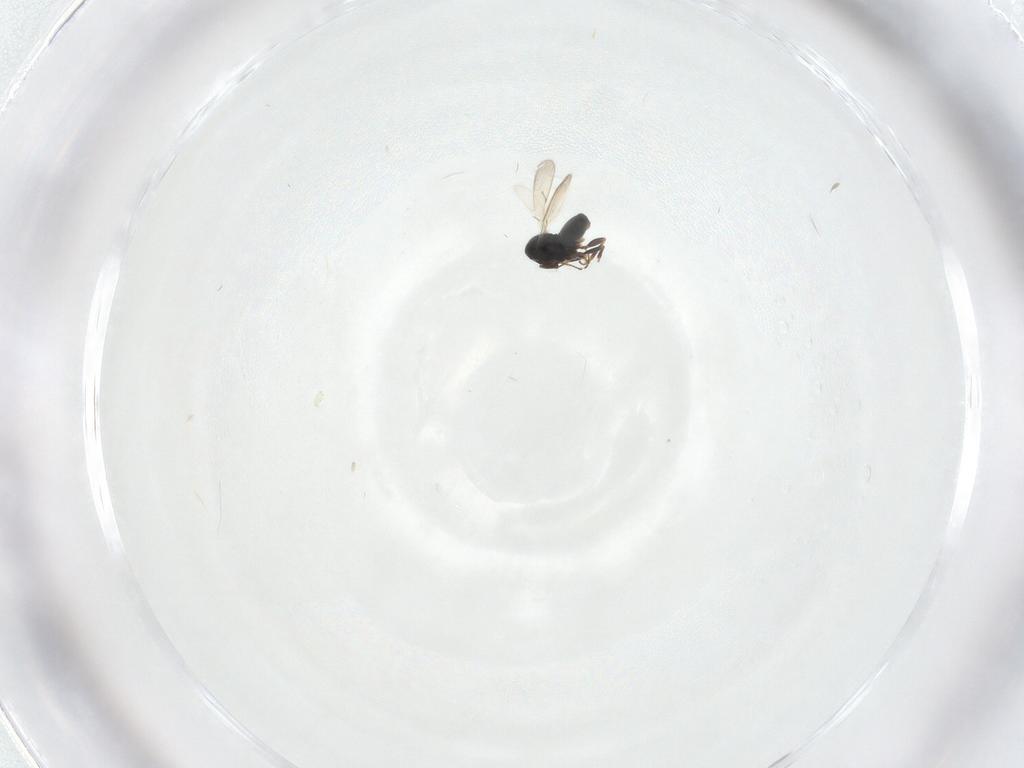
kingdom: Animalia
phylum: Arthropoda
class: Insecta
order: Hymenoptera
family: Scelionidae
